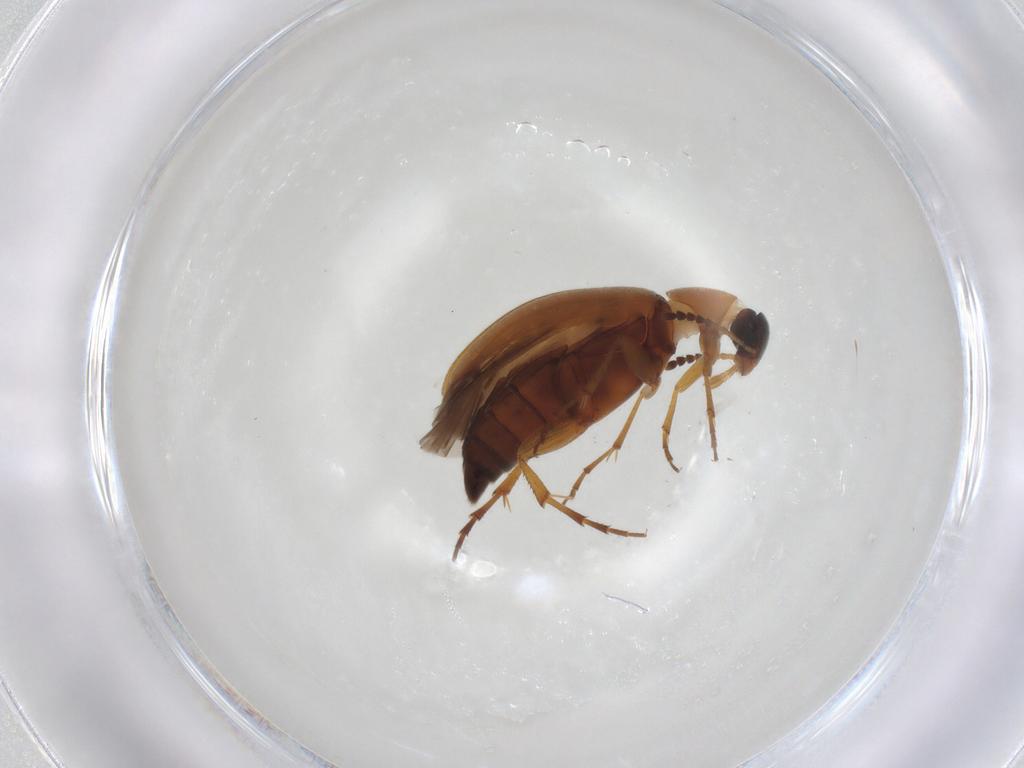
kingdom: Animalia
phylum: Arthropoda
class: Insecta
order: Coleoptera
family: Scraptiidae
